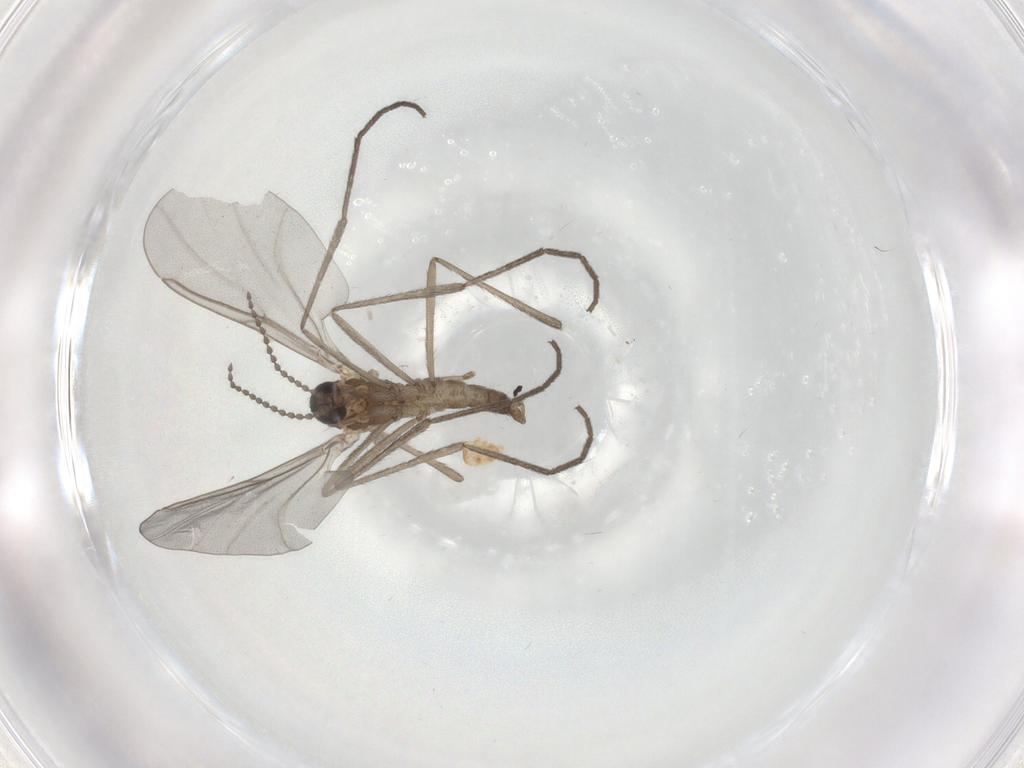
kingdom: Animalia
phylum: Arthropoda
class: Insecta
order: Diptera
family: Cecidomyiidae
